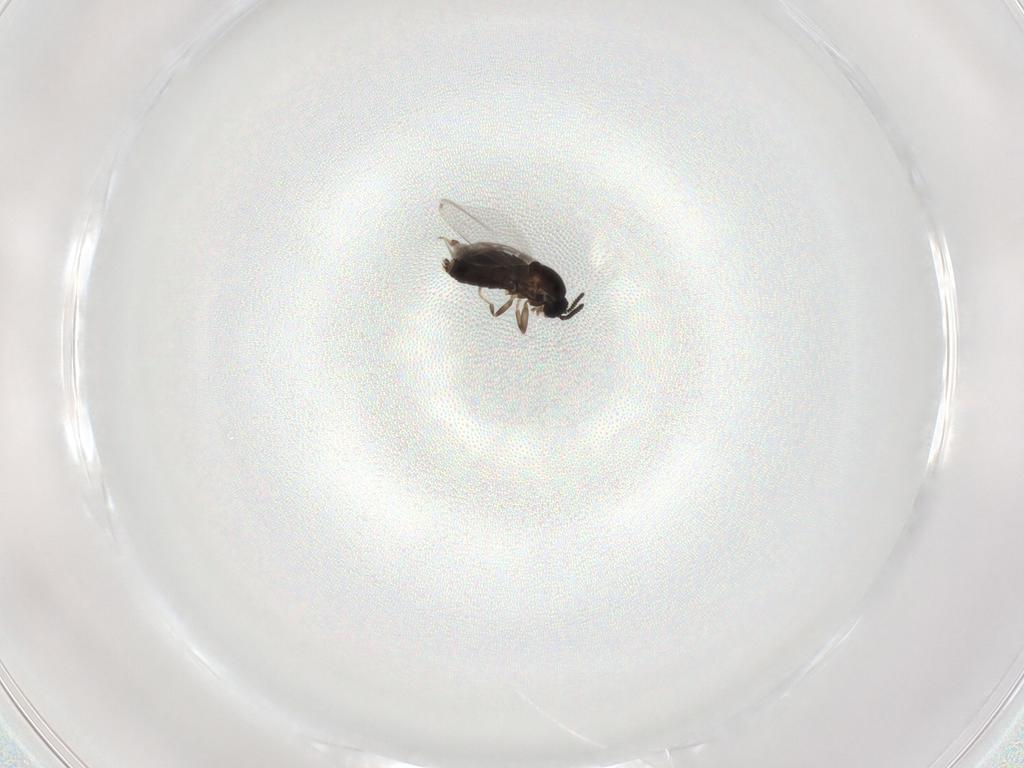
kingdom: Animalia
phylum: Arthropoda
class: Insecta
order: Diptera
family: Scatopsidae
